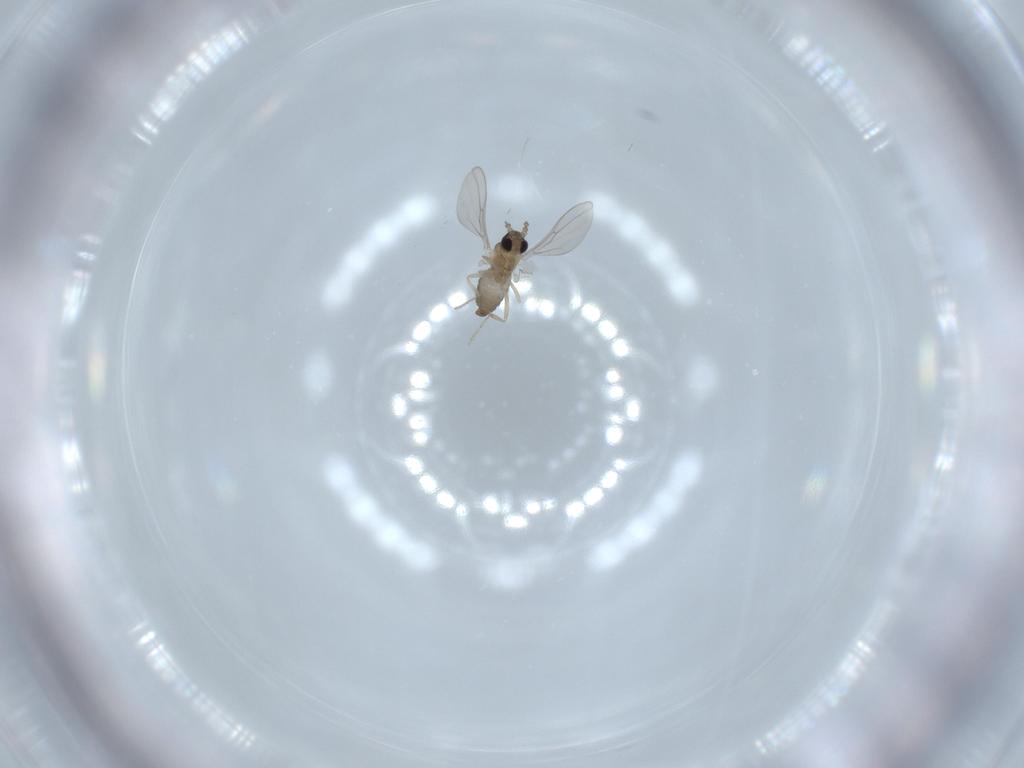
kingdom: Animalia
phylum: Arthropoda
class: Insecta
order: Diptera
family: Cecidomyiidae
